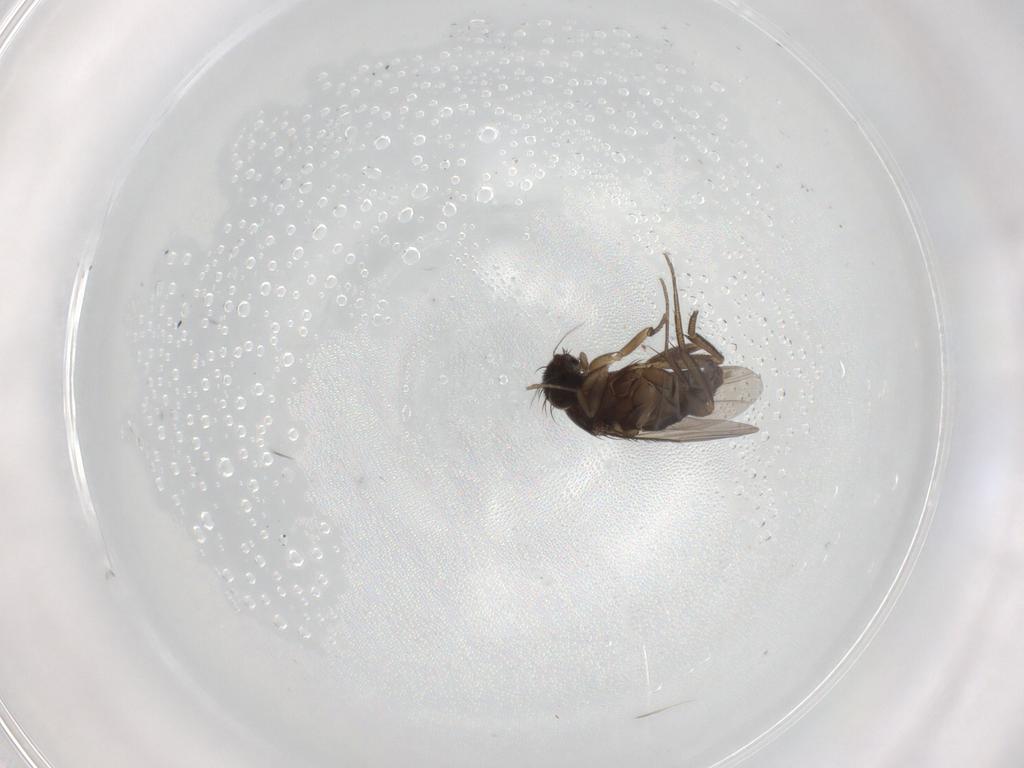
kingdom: Animalia
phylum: Arthropoda
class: Insecta
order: Diptera
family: Phoridae
